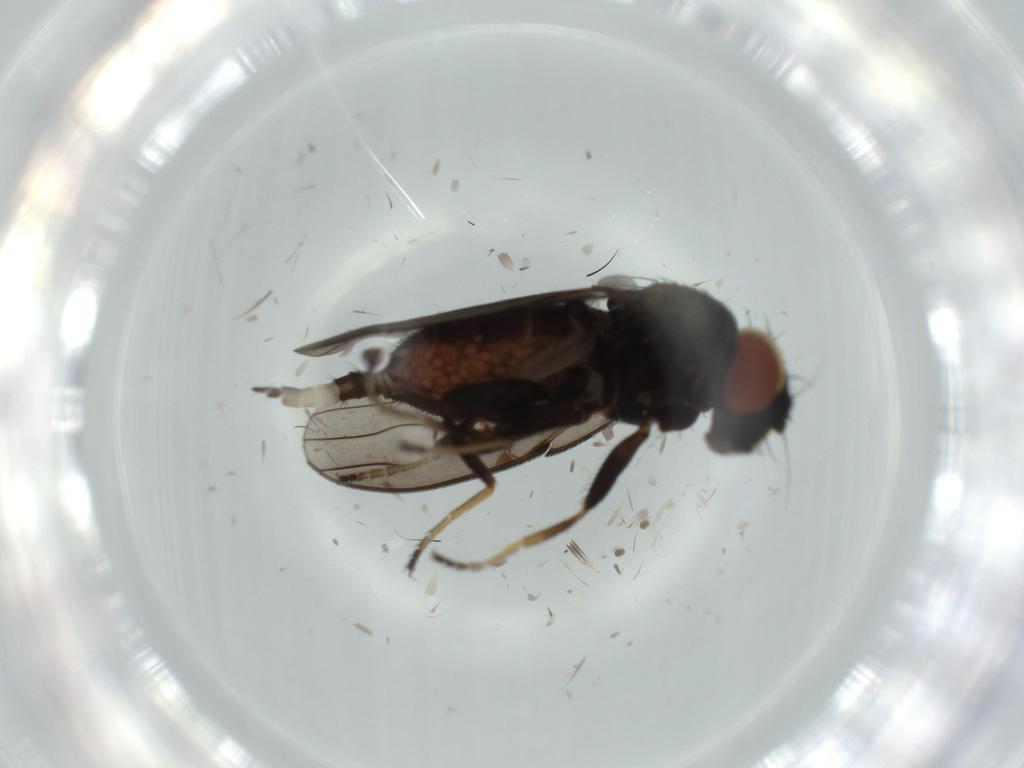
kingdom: Animalia
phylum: Arthropoda
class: Insecta
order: Diptera
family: Milichiidae
